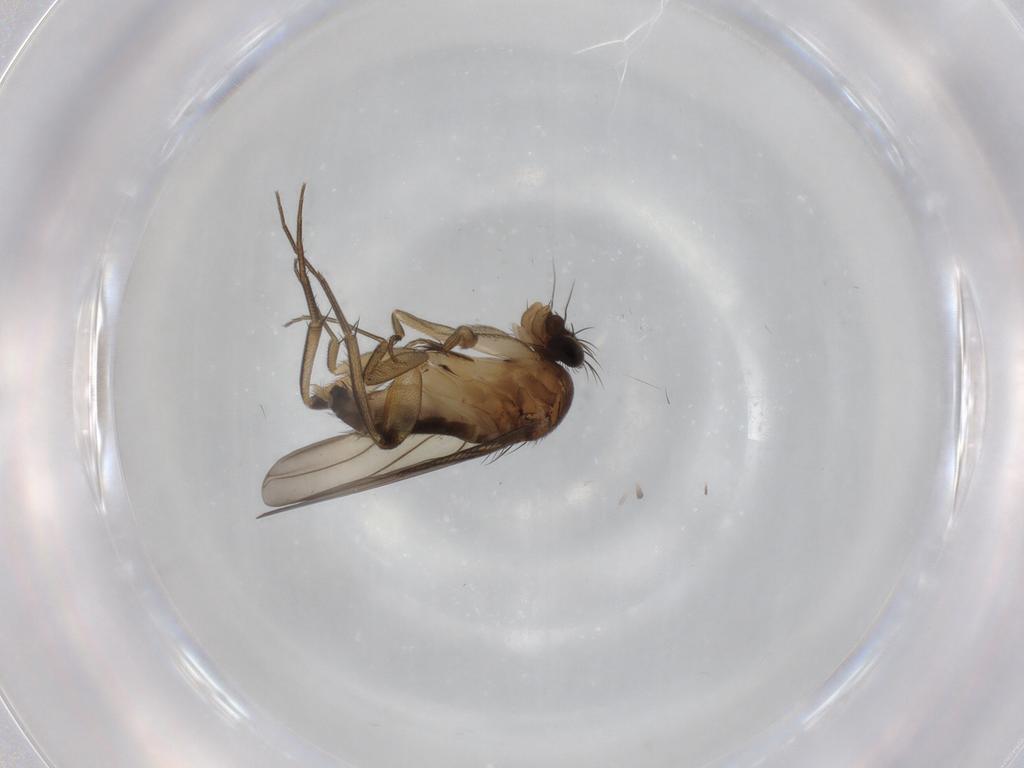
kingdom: Animalia
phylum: Arthropoda
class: Insecta
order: Diptera
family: Phoridae
